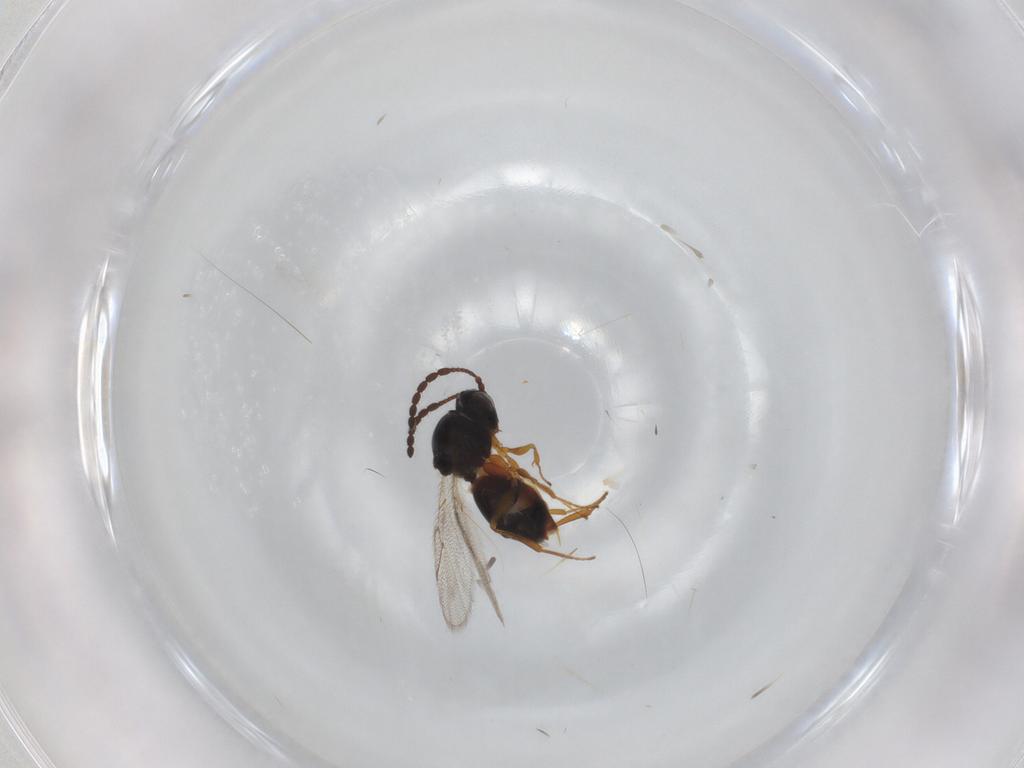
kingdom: Animalia
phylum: Arthropoda
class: Insecta
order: Hymenoptera
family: Figitidae
